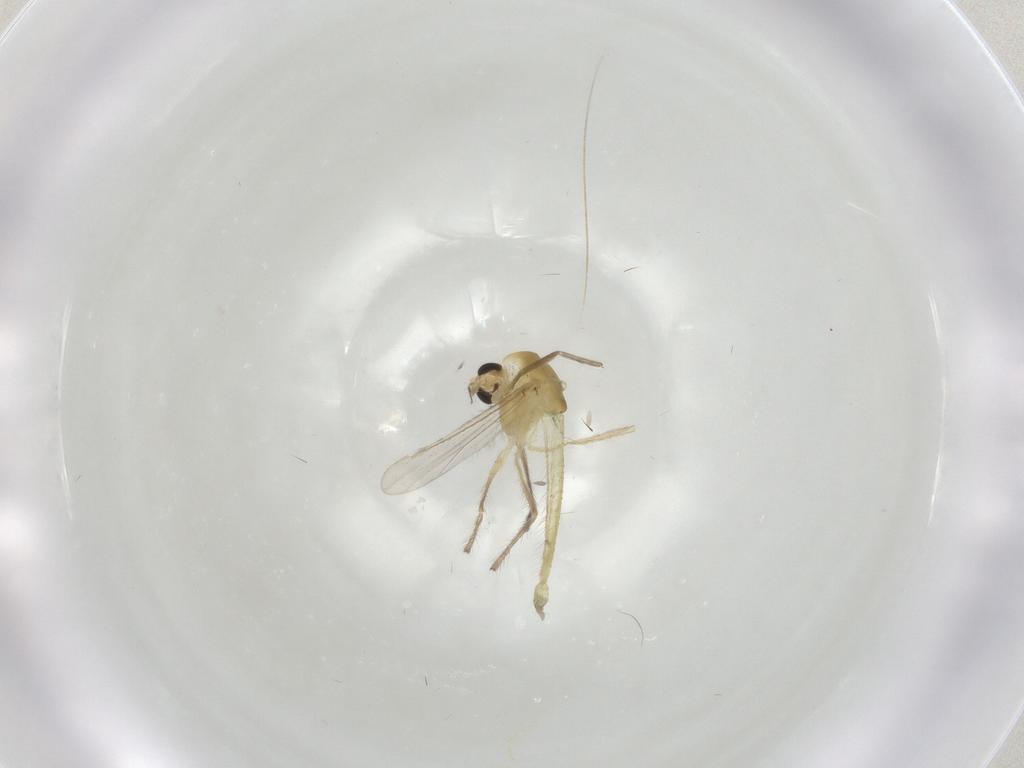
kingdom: Animalia
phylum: Arthropoda
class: Insecta
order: Diptera
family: Chironomidae
